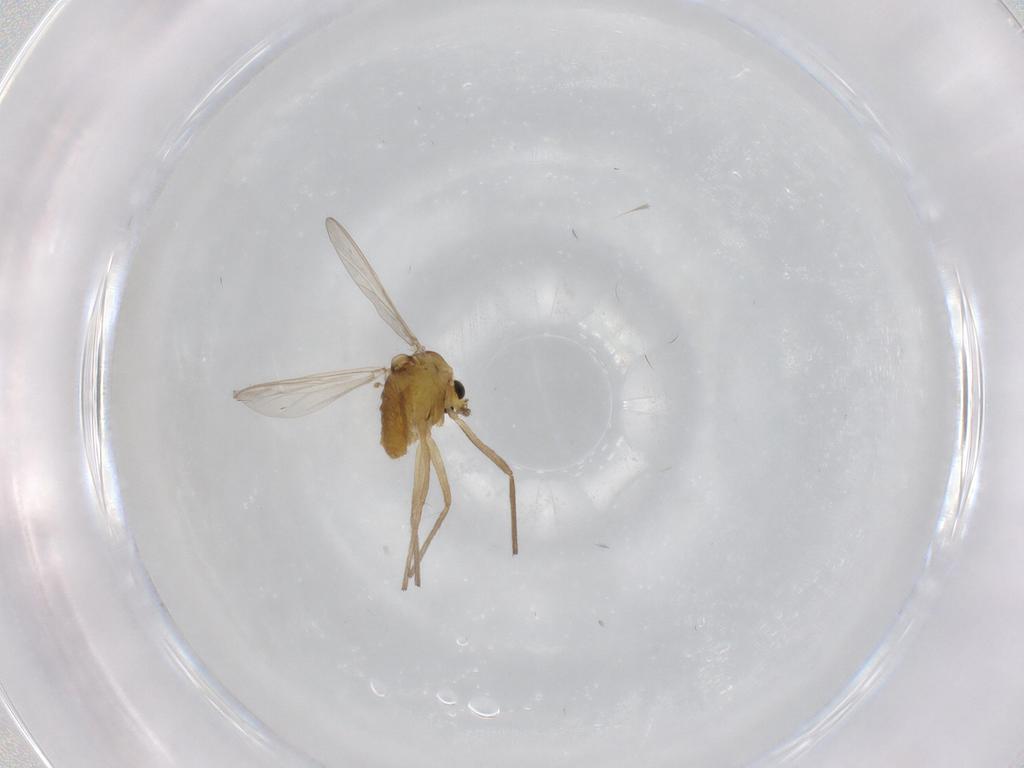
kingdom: Animalia
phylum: Arthropoda
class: Insecta
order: Diptera
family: Chironomidae
